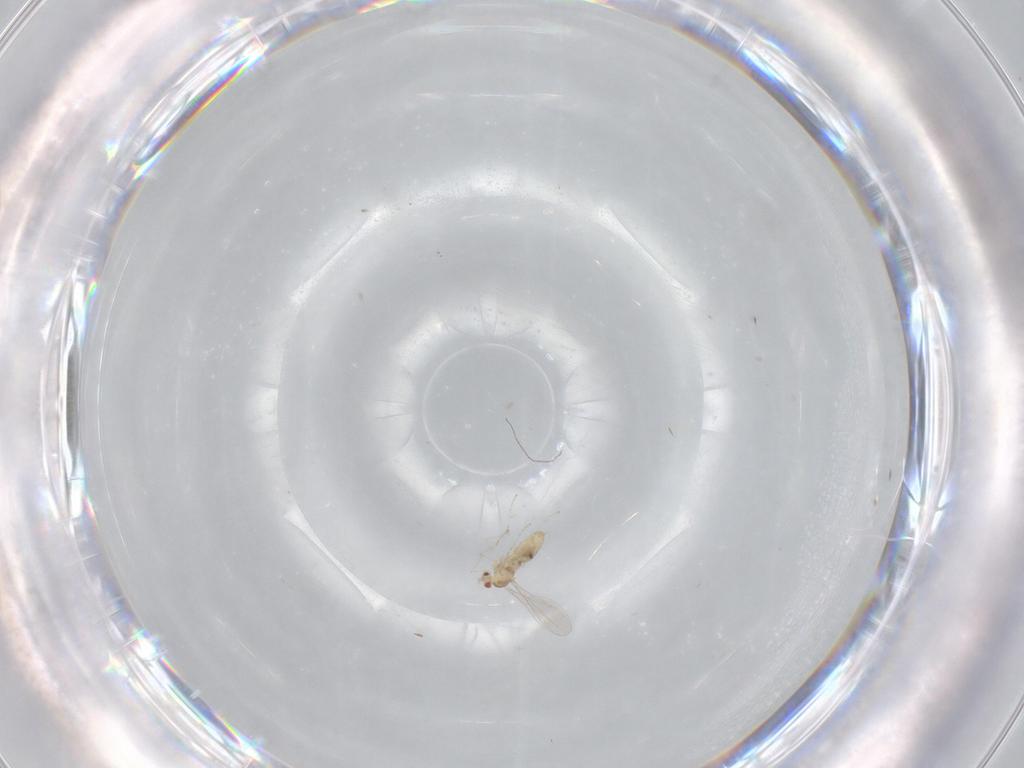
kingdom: Animalia
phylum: Arthropoda
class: Insecta
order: Diptera
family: Cecidomyiidae
